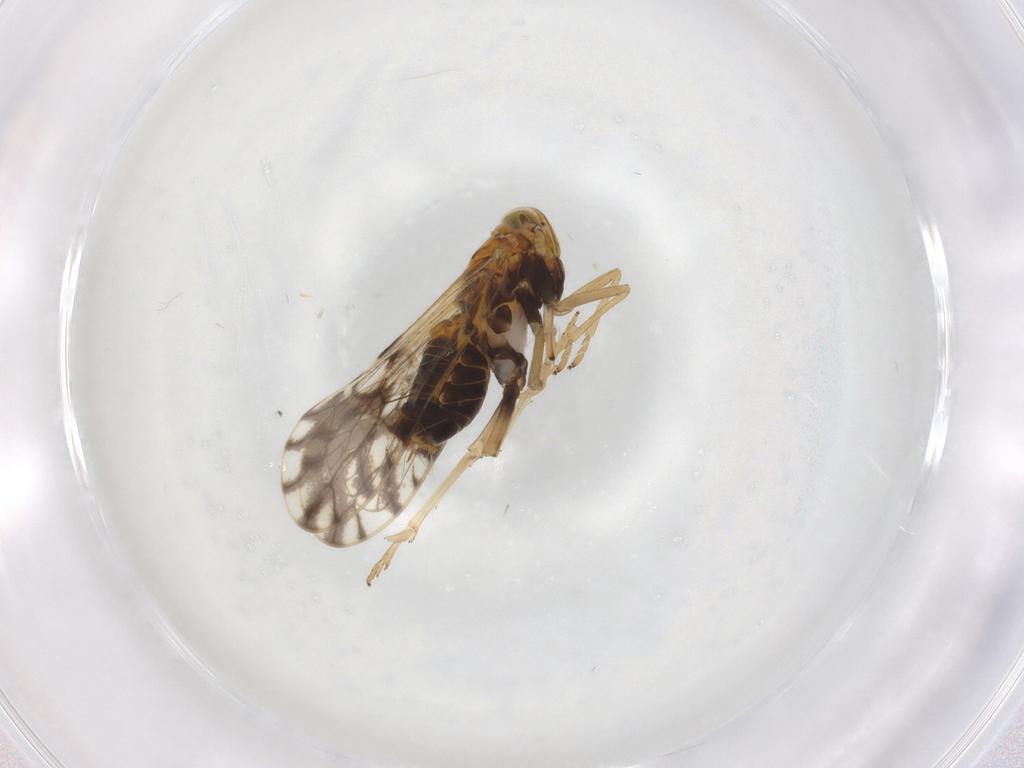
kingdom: Animalia
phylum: Arthropoda
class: Insecta
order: Hemiptera
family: Delphacidae
